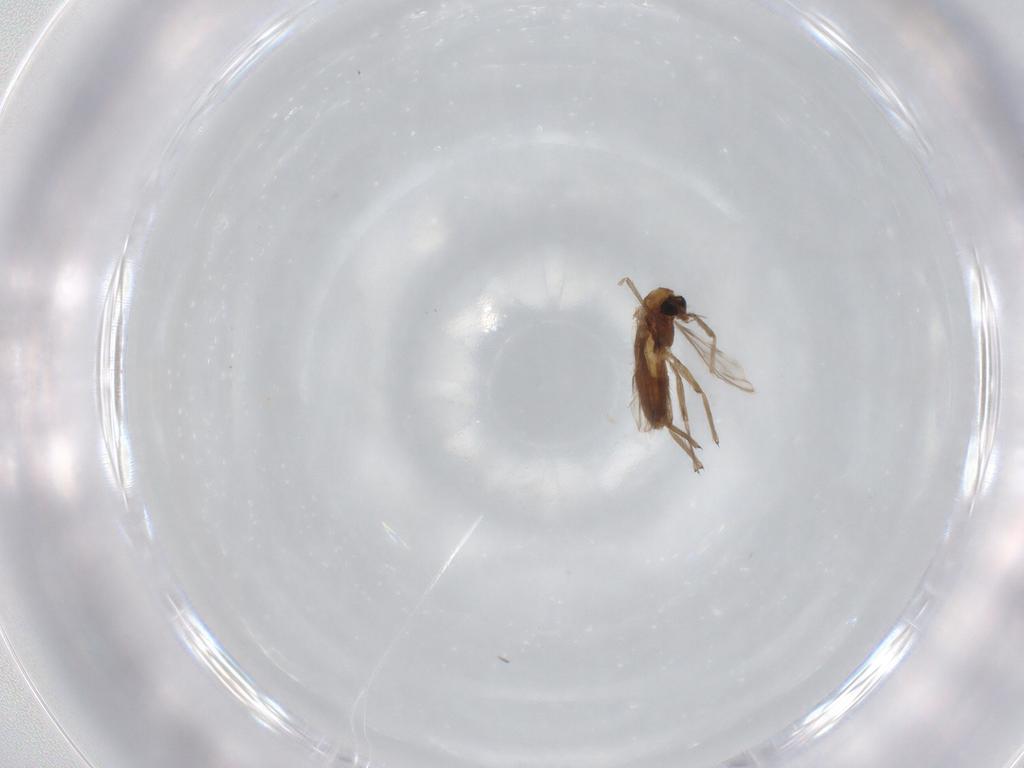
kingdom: Animalia
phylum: Arthropoda
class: Insecta
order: Diptera
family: Chironomidae
